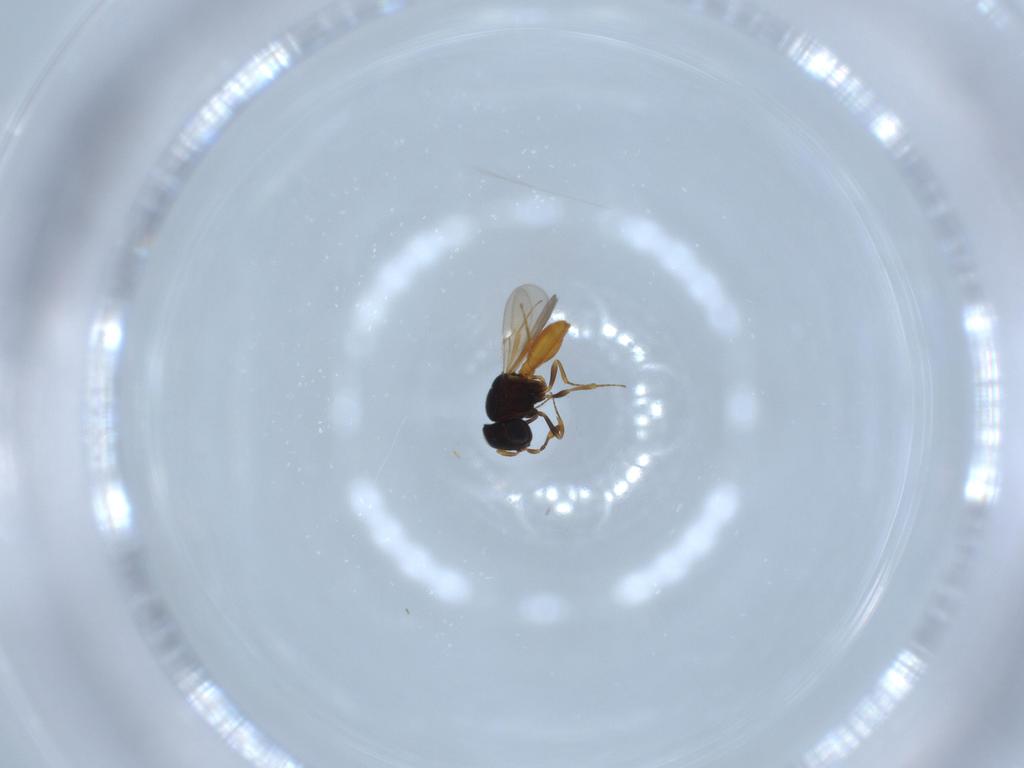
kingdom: Animalia
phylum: Arthropoda
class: Insecta
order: Hymenoptera
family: Scelionidae
